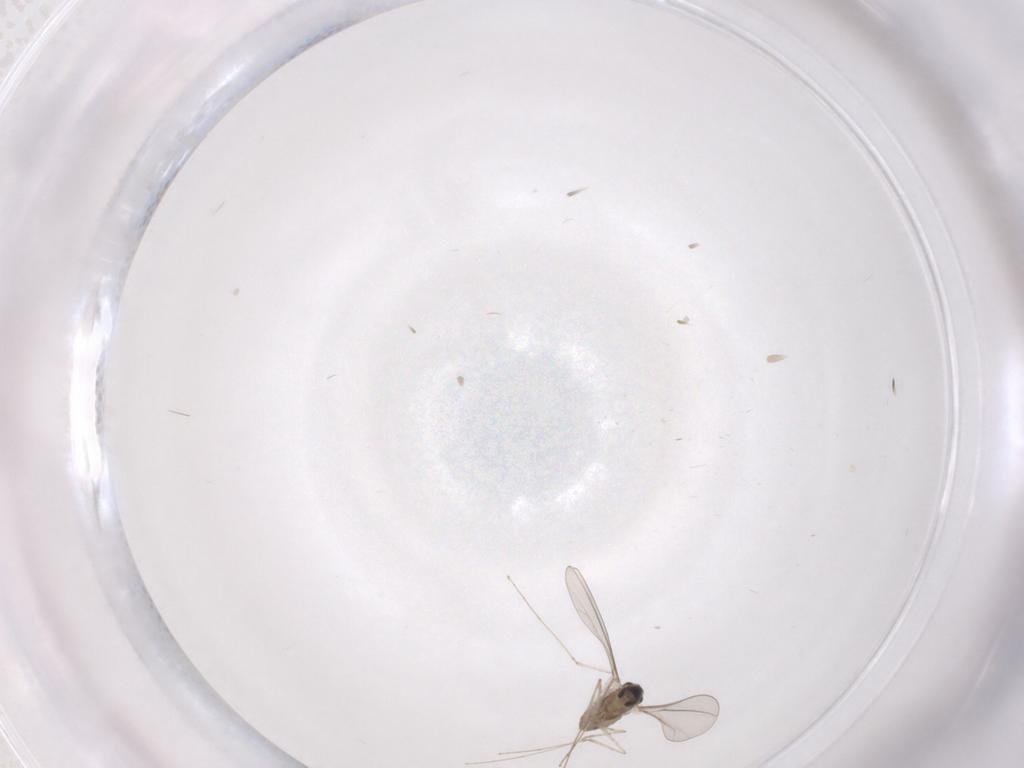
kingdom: Animalia
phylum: Arthropoda
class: Insecta
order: Diptera
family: Cecidomyiidae
